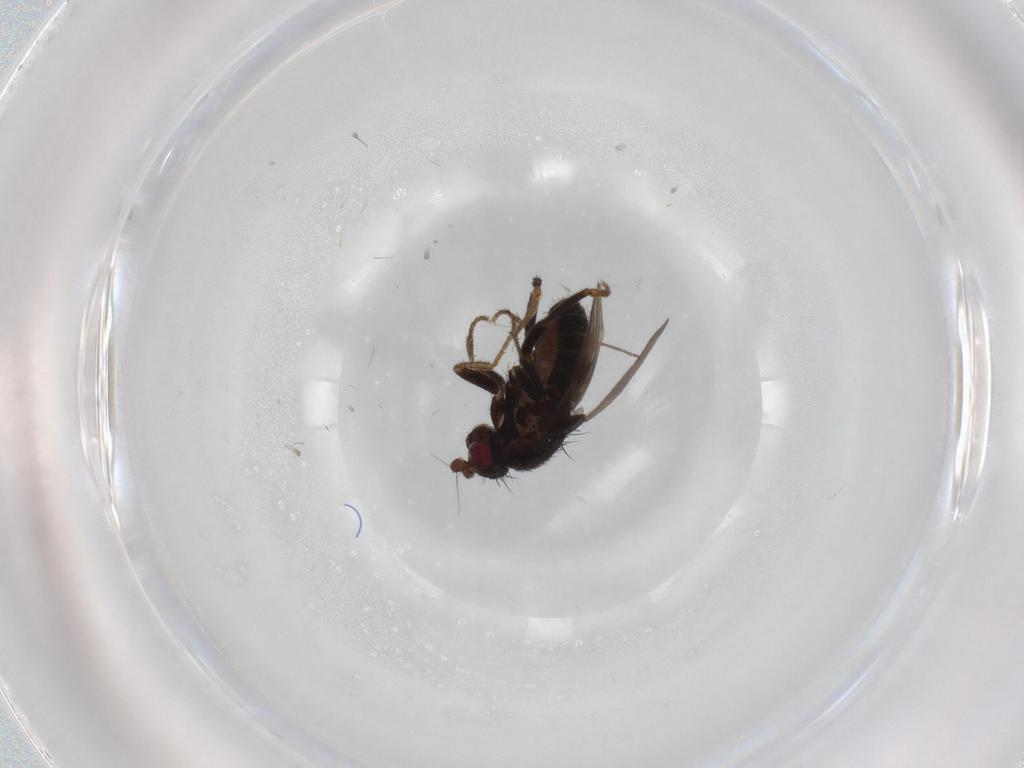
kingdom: Animalia
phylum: Arthropoda
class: Insecta
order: Diptera
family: Sphaeroceridae
